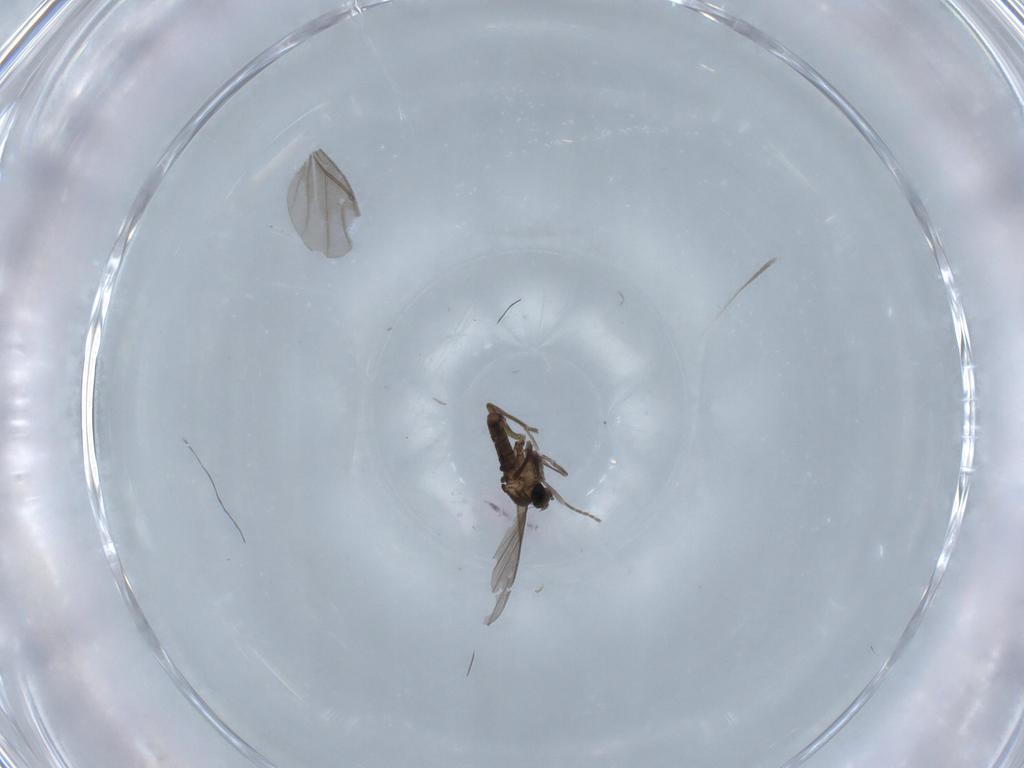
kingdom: Animalia
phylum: Arthropoda
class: Insecta
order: Diptera
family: Phoridae
